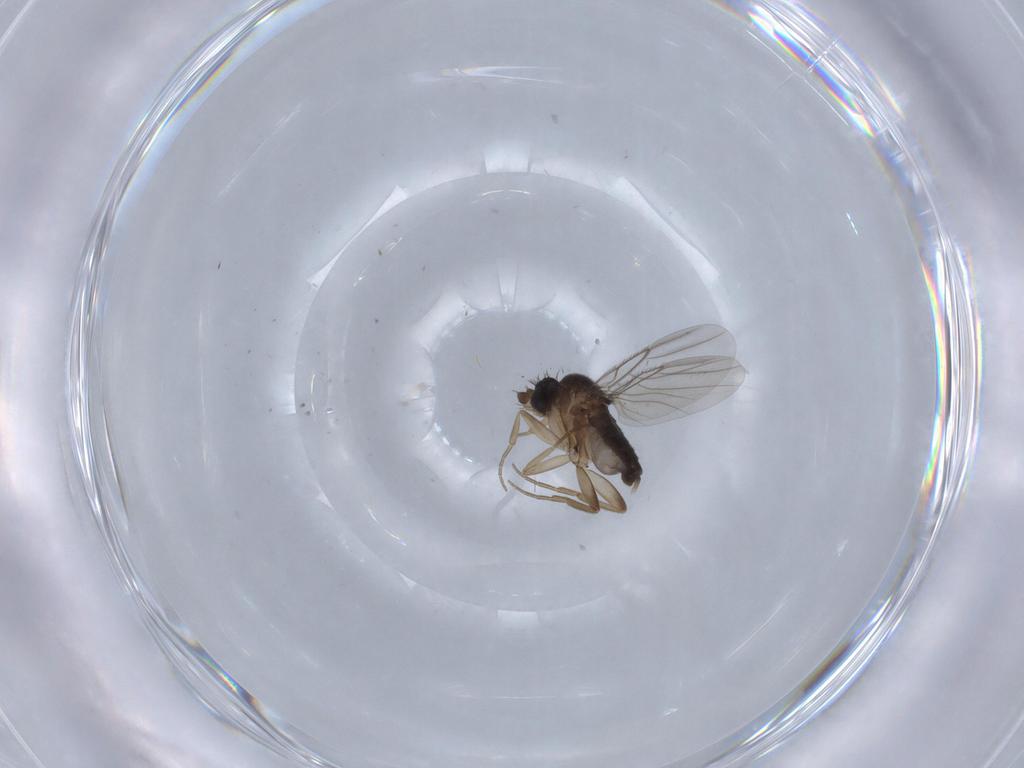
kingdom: Animalia
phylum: Arthropoda
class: Insecta
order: Diptera
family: Phoridae
